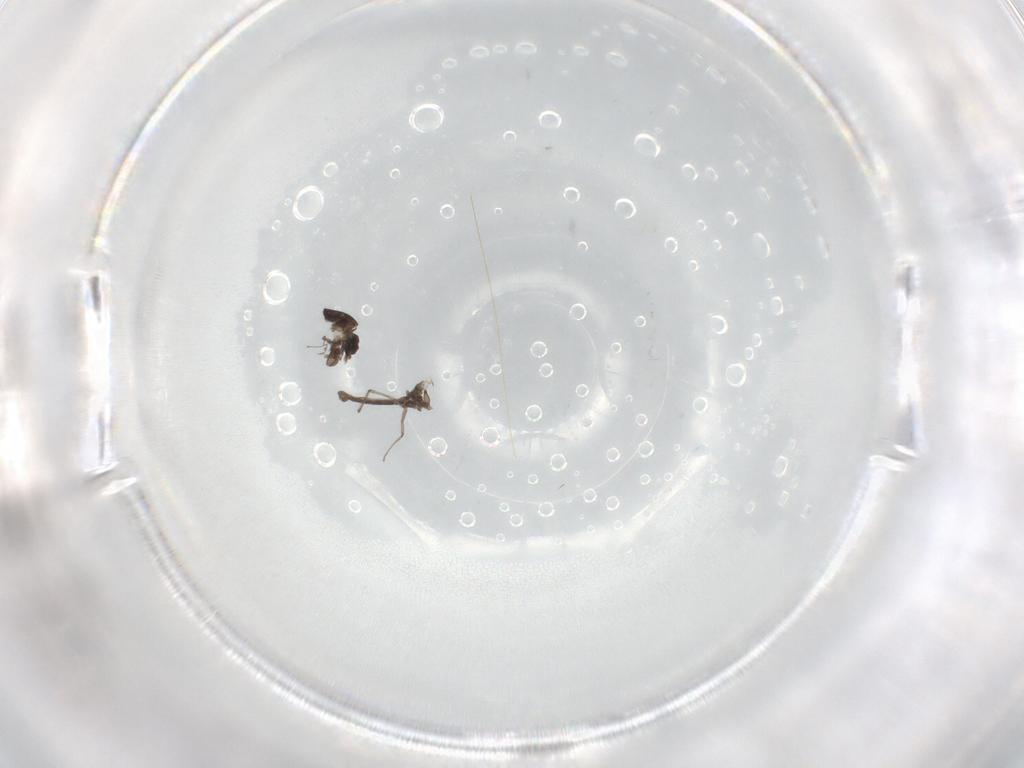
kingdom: Animalia
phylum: Arthropoda
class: Insecta
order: Diptera
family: Chironomidae
